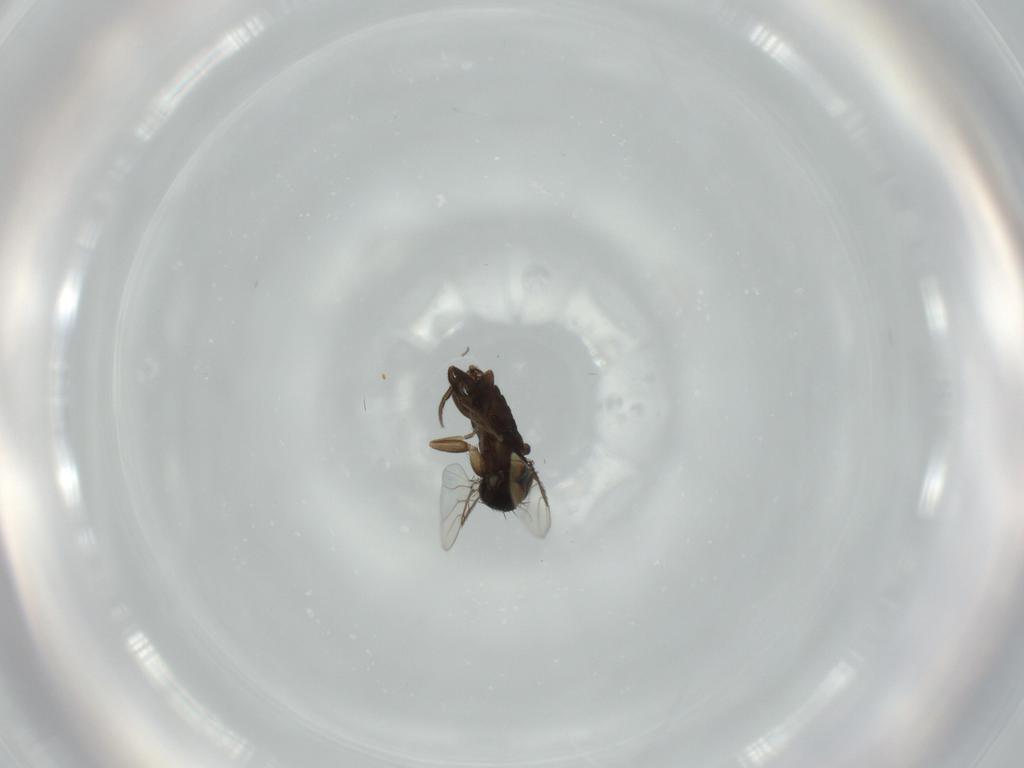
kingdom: Animalia
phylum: Arthropoda
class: Insecta
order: Diptera
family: Phoridae
